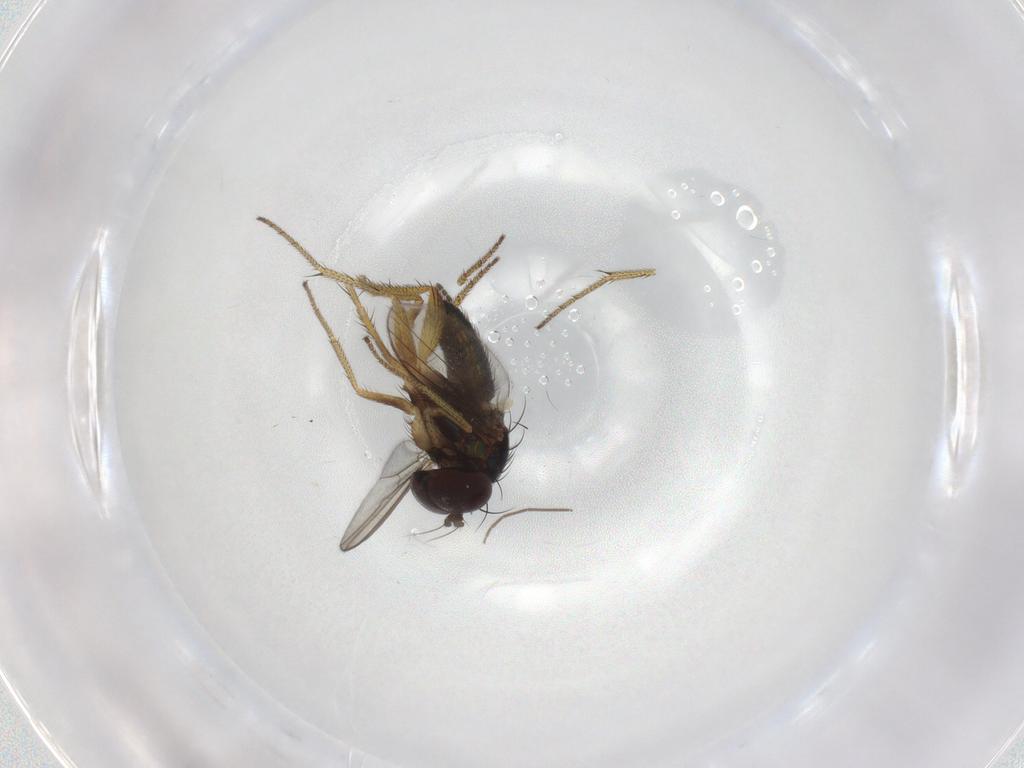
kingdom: Animalia
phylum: Arthropoda
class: Insecta
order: Diptera
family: Chironomidae
